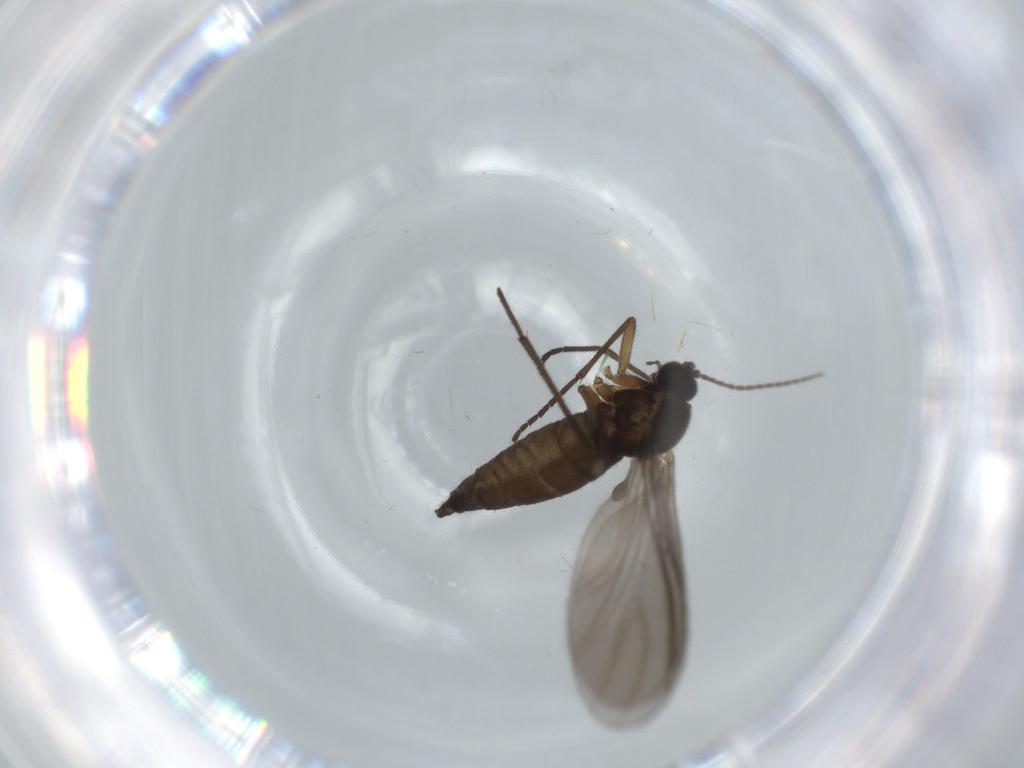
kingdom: Animalia
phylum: Arthropoda
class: Insecta
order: Diptera
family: Sciaridae
